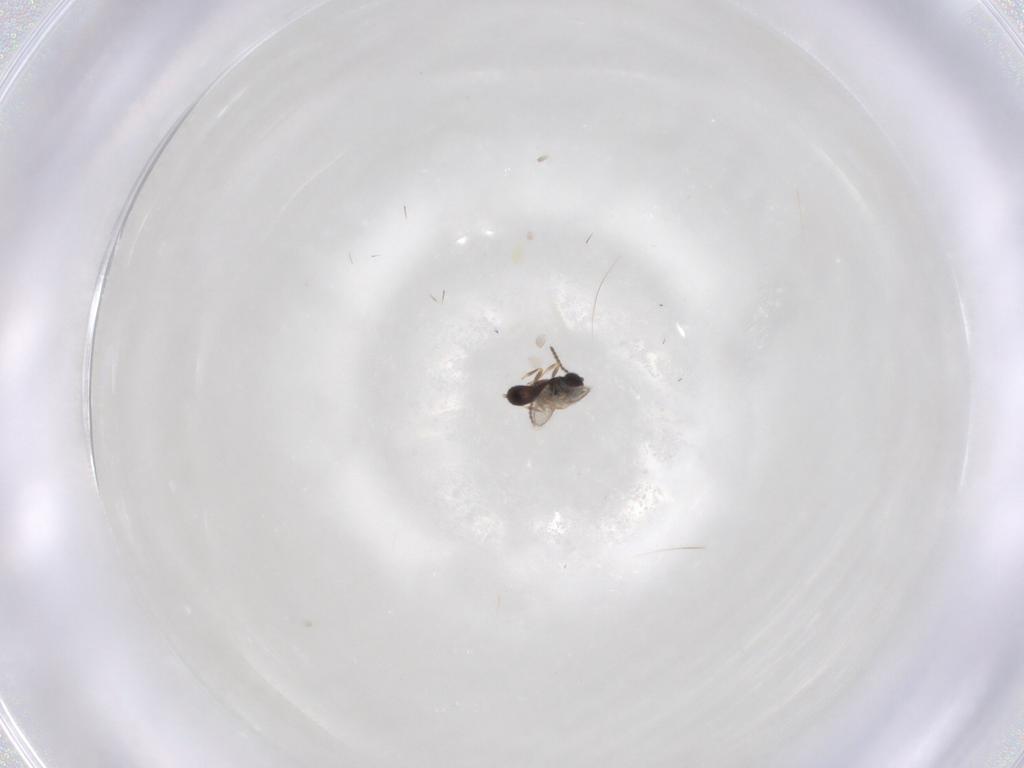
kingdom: Animalia
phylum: Arthropoda
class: Insecta
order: Hymenoptera
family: Scelionidae
